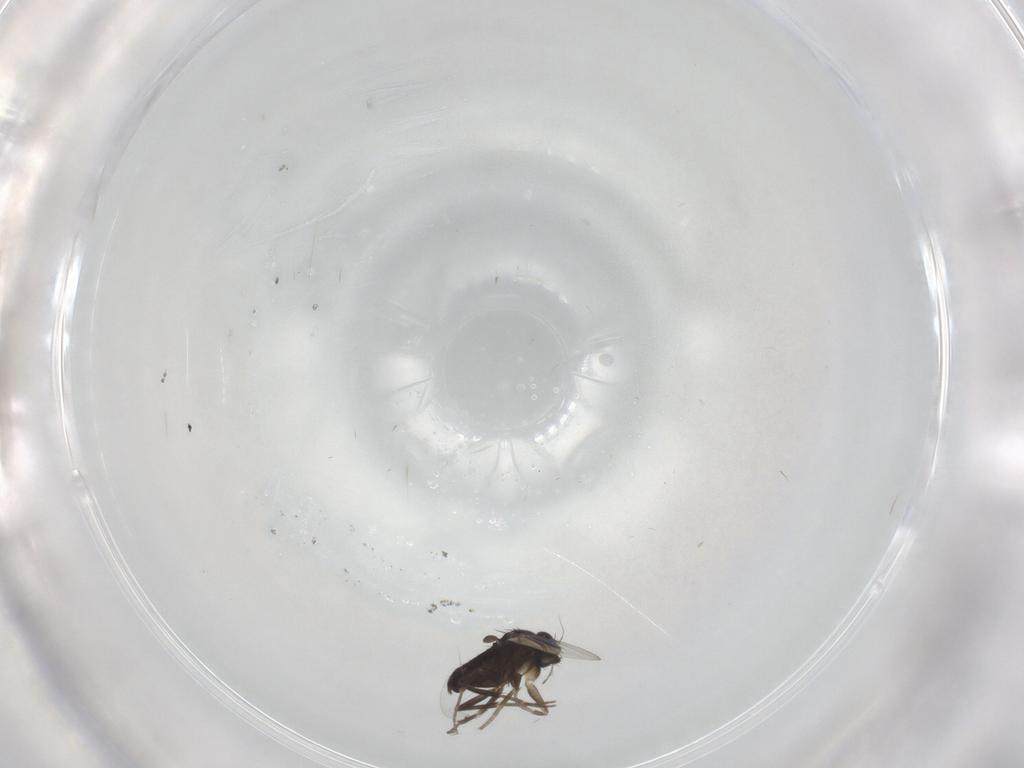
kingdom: Animalia
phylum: Arthropoda
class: Insecta
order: Diptera
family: Phoridae
